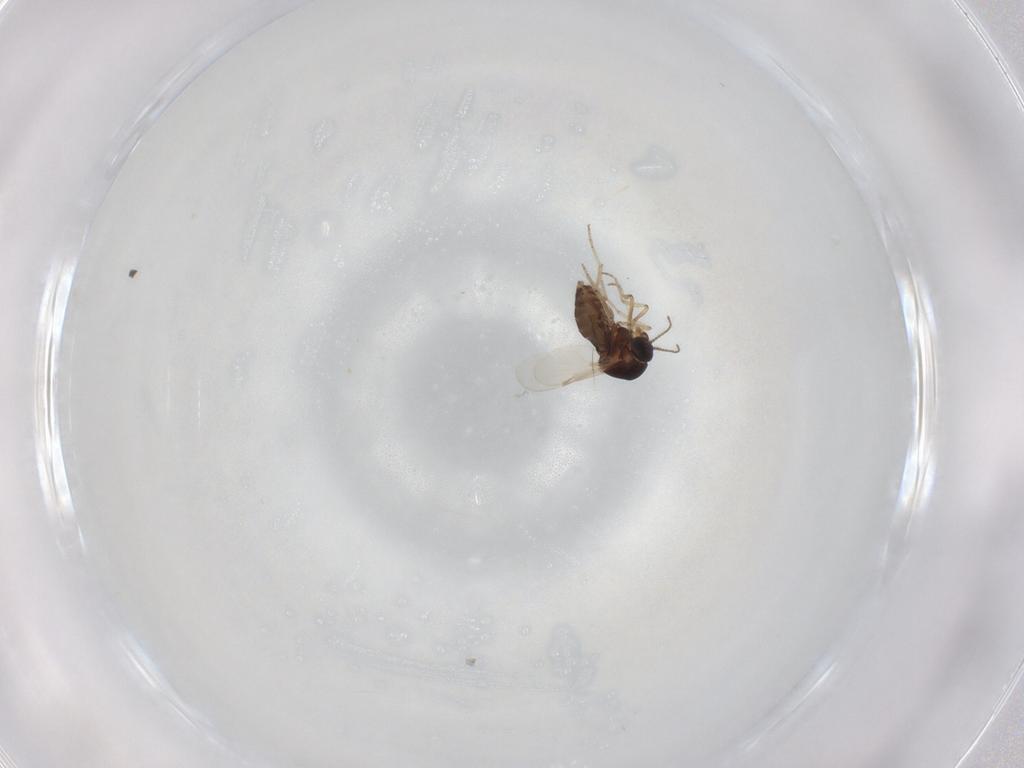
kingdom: Animalia
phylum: Arthropoda
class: Insecta
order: Diptera
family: Ceratopogonidae
